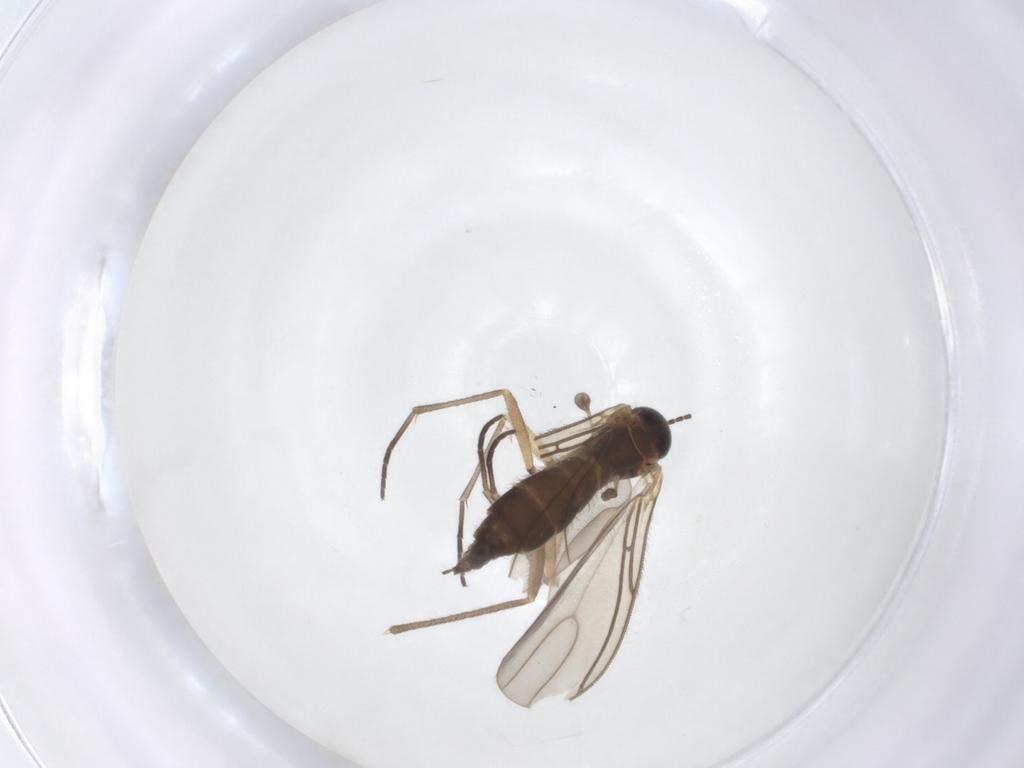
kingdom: Animalia
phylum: Arthropoda
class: Insecta
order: Diptera
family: Sciaridae
